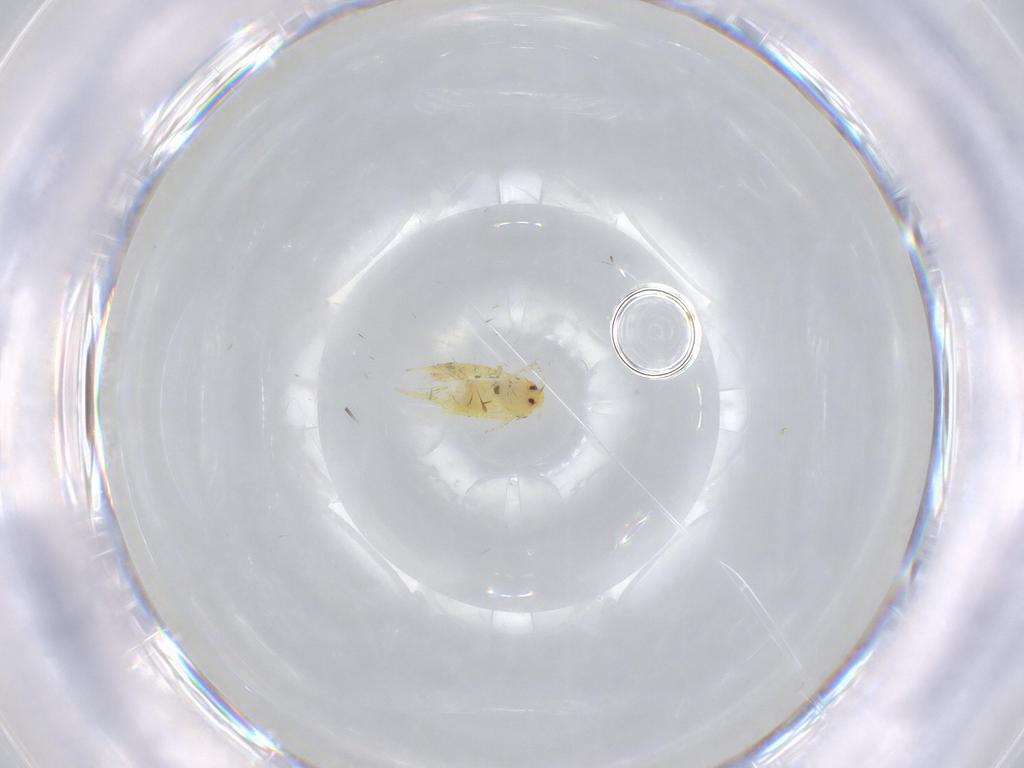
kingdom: Animalia
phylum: Arthropoda
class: Insecta
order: Hemiptera
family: Aleyrodidae
